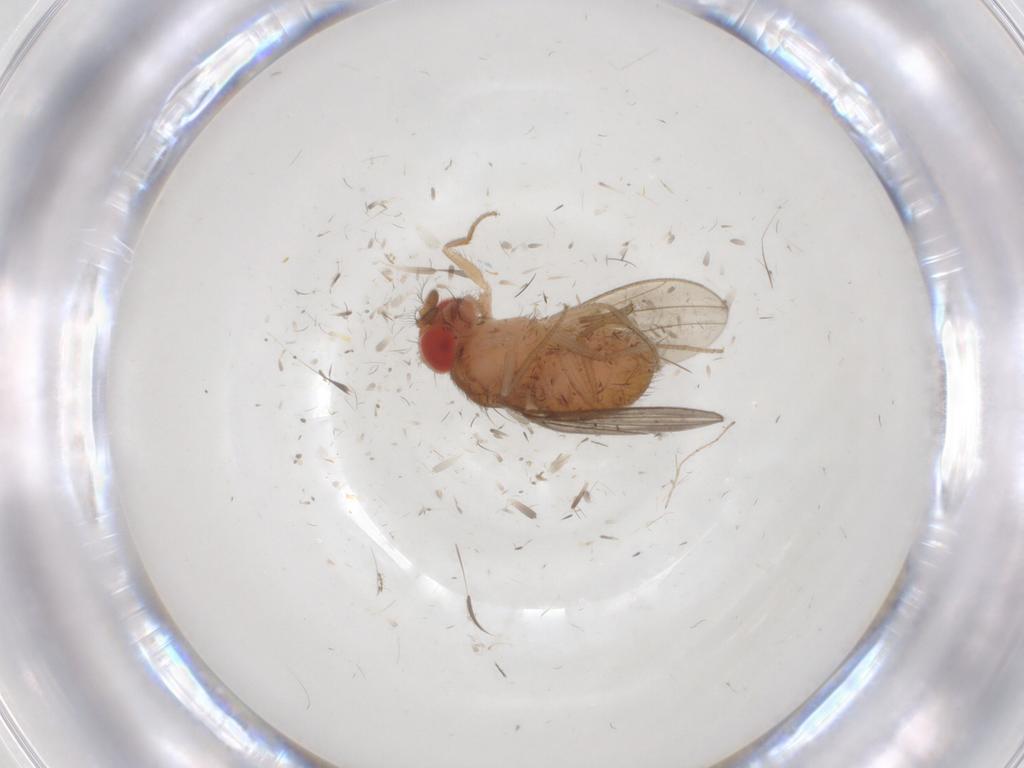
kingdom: Animalia
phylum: Arthropoda
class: Insecta
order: Diptera
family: Drosophilidae
